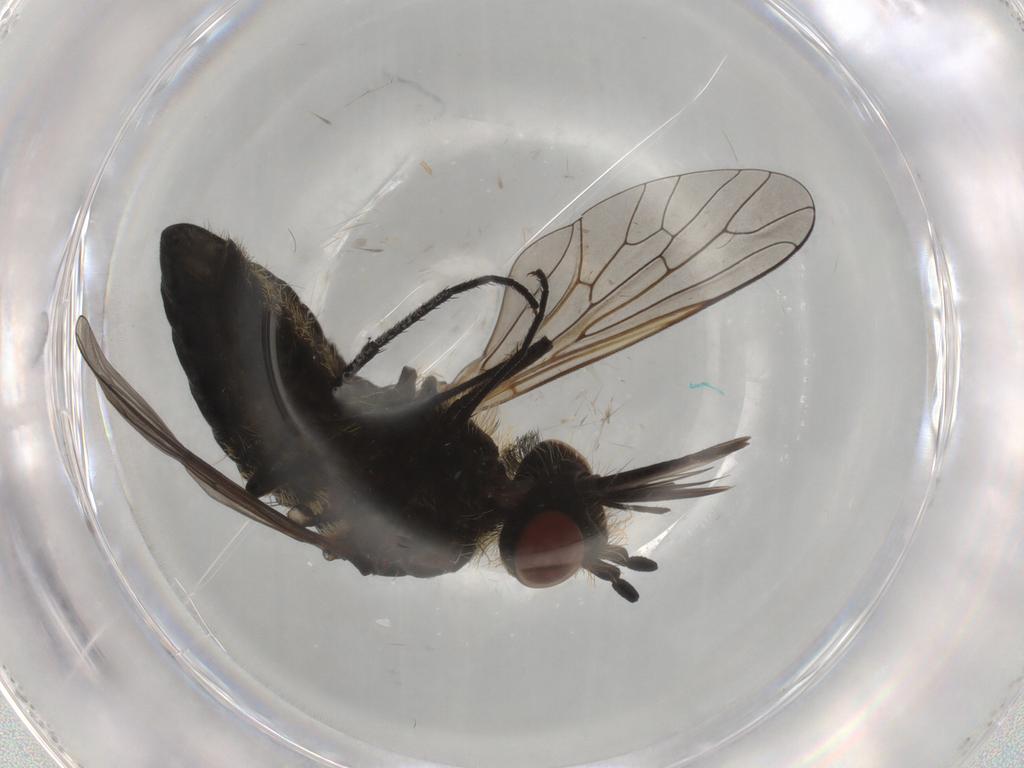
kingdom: Animalia
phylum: Arthropoda
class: Insecta
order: Diptera
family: Bombyliidae
